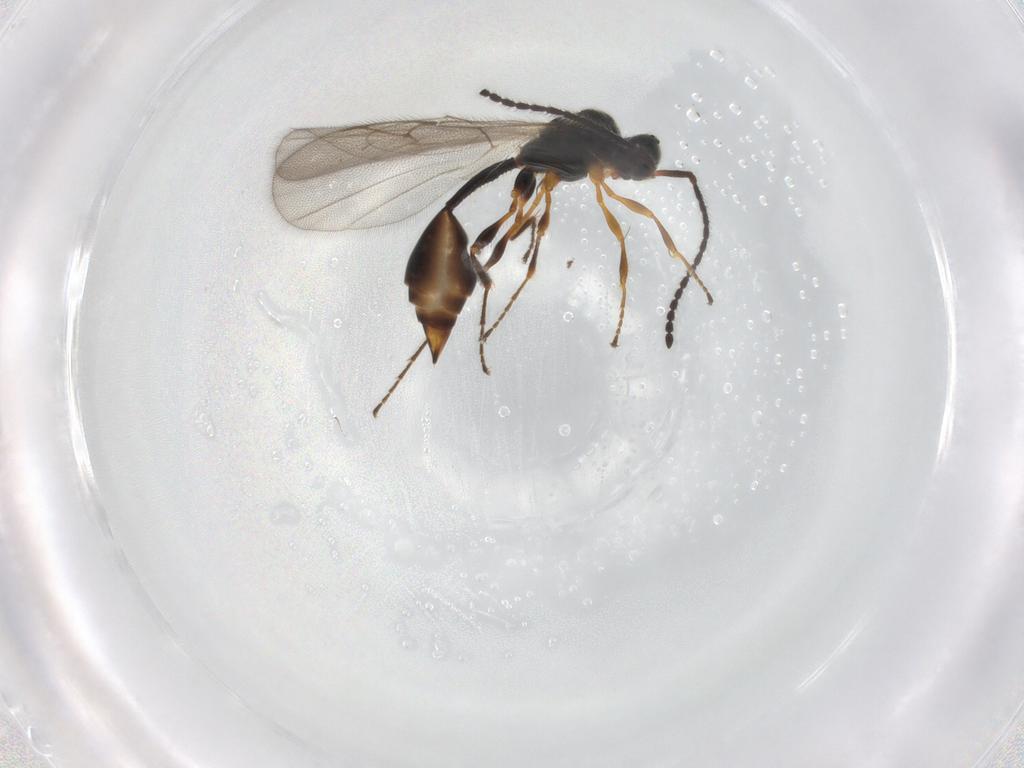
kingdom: Animalia
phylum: Arthropoda
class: Insecta
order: Hymenoptera
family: Diapriidae
